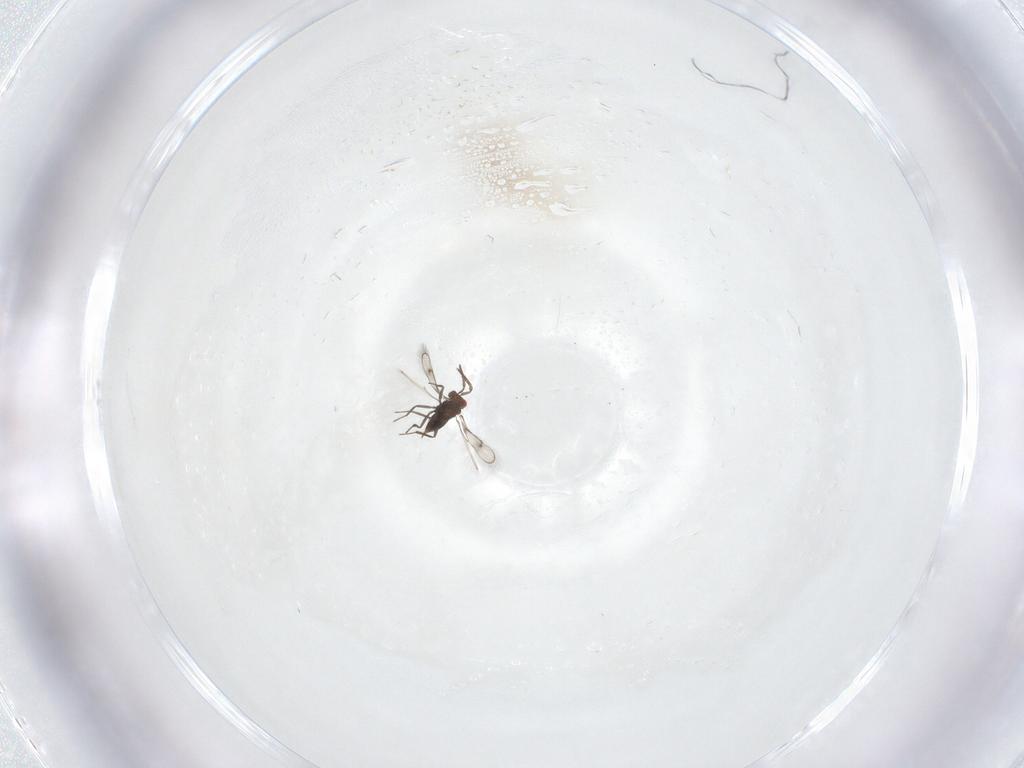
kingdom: Animalia
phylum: Arthropoda
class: Insecta
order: Hymenoptera
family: Trichogrammatidae
